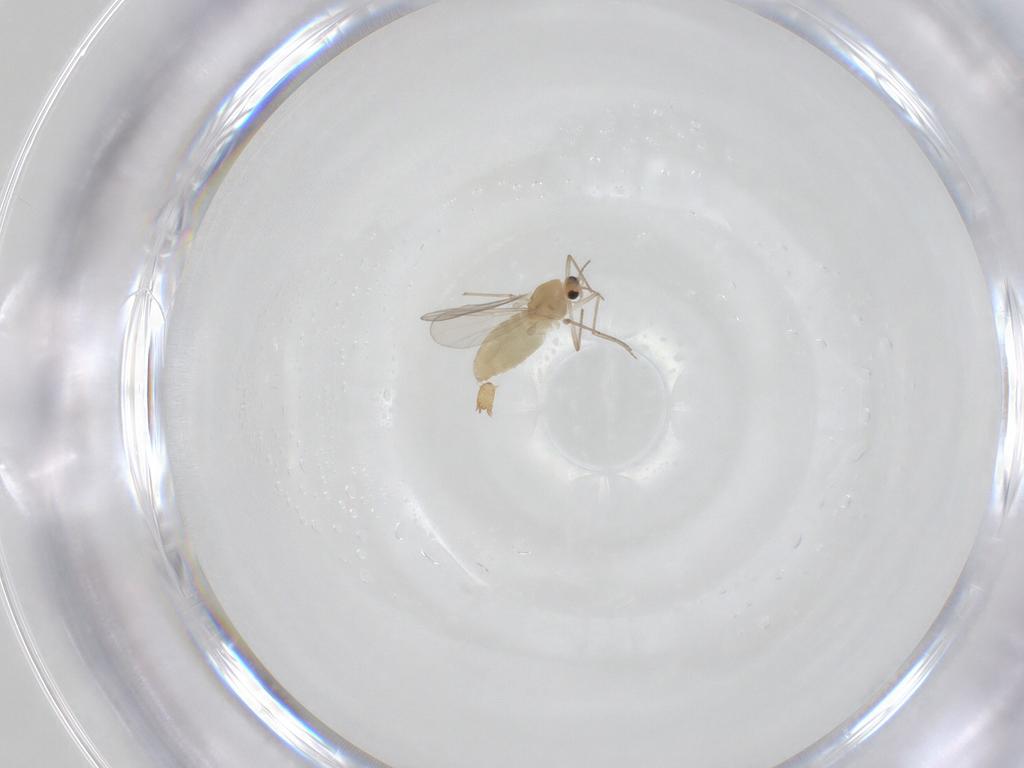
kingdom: Animalia
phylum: Arthropoda
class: Insecta
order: Diptera
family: Chironomidae
